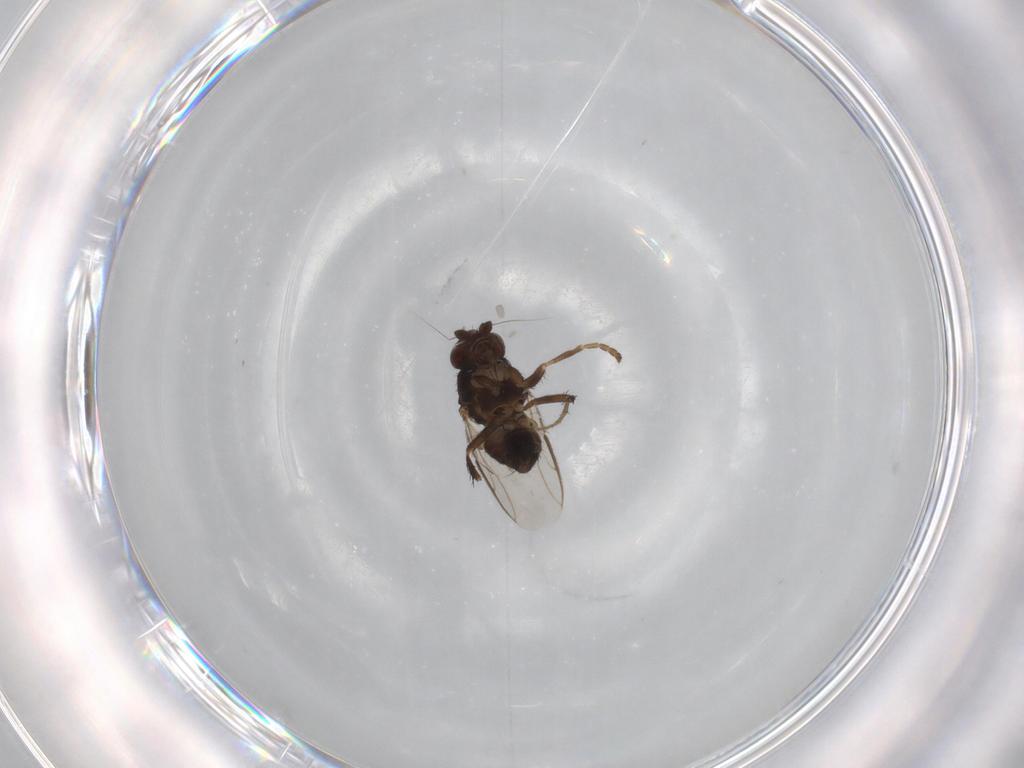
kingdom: Animalia
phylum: Arthropoda
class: Insecta
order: Diptera
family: Sphaeroceridae
